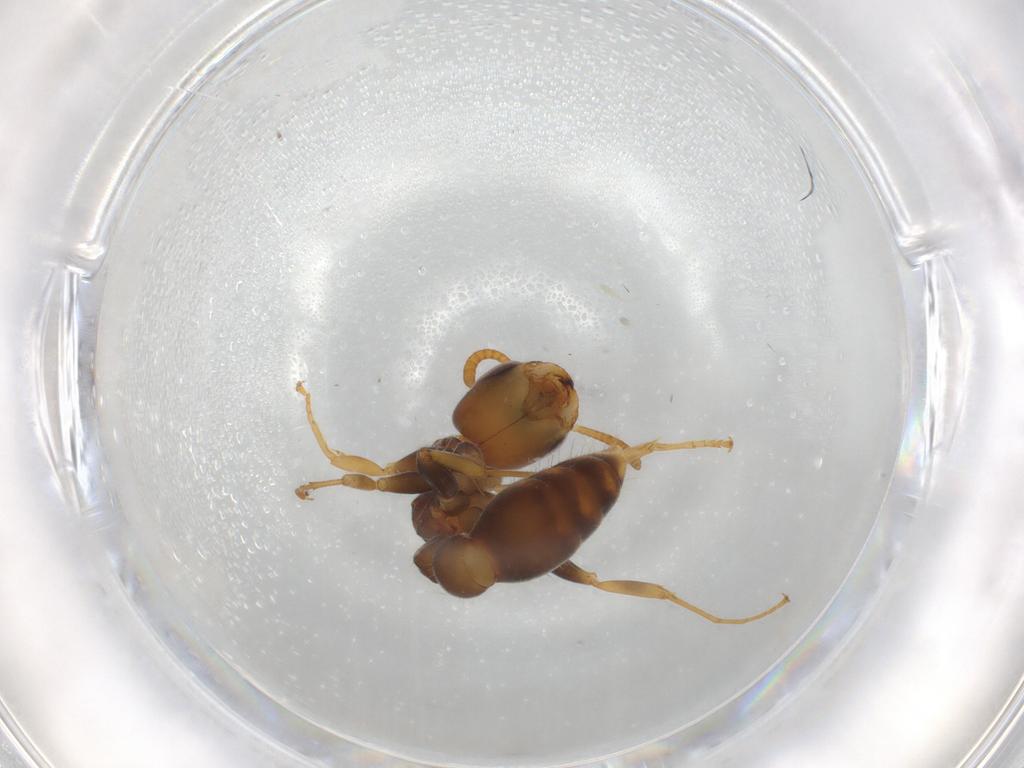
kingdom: Animalia
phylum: Arthropoda
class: Insecta
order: Hymenoptera
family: Formicidae
